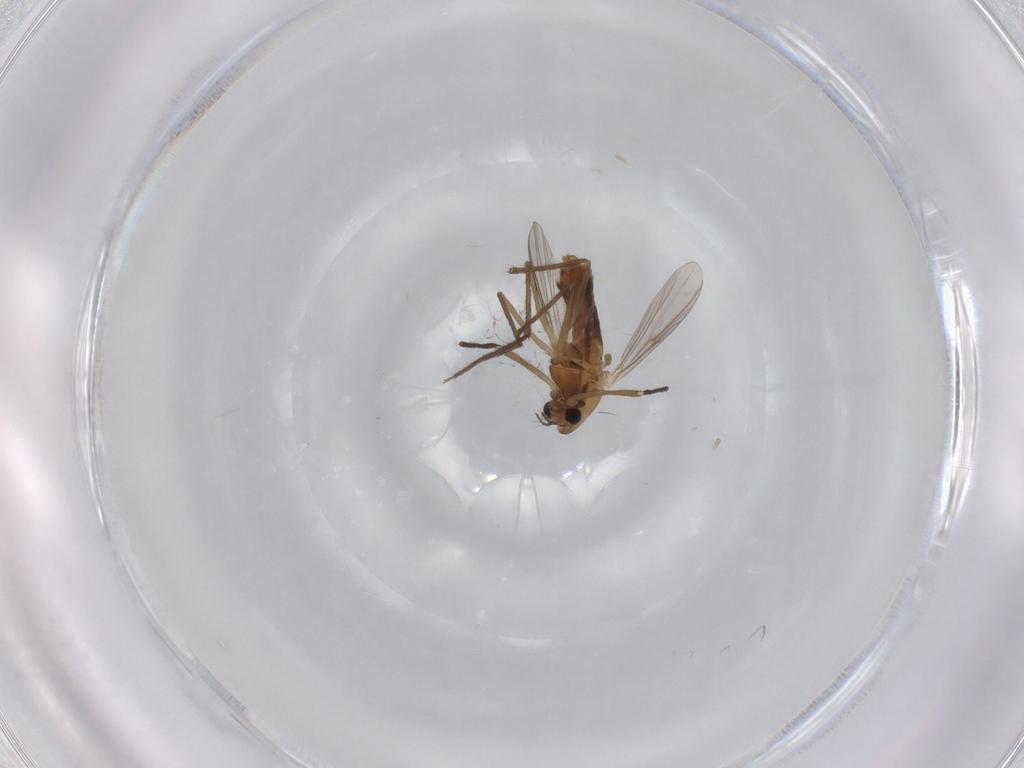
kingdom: Animalia
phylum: Arthropoda
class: Insecta
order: Diptera
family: Chironomidae
